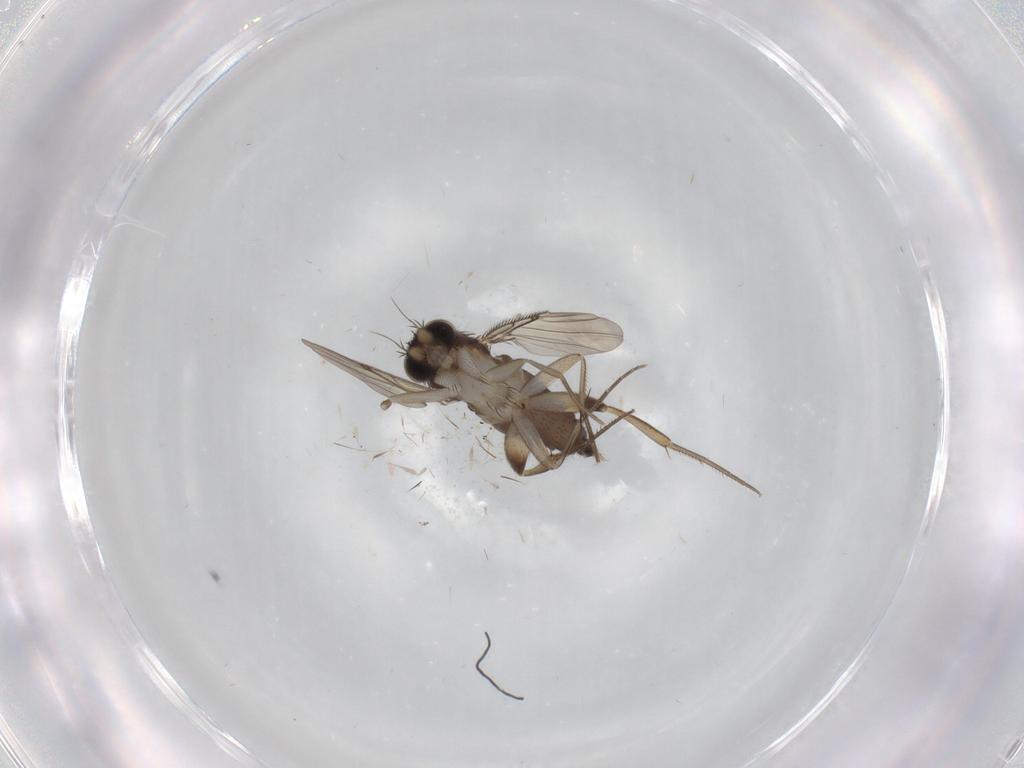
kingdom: Animalia
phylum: Arthropoda
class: Insecta
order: Diptera
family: Phoridae
